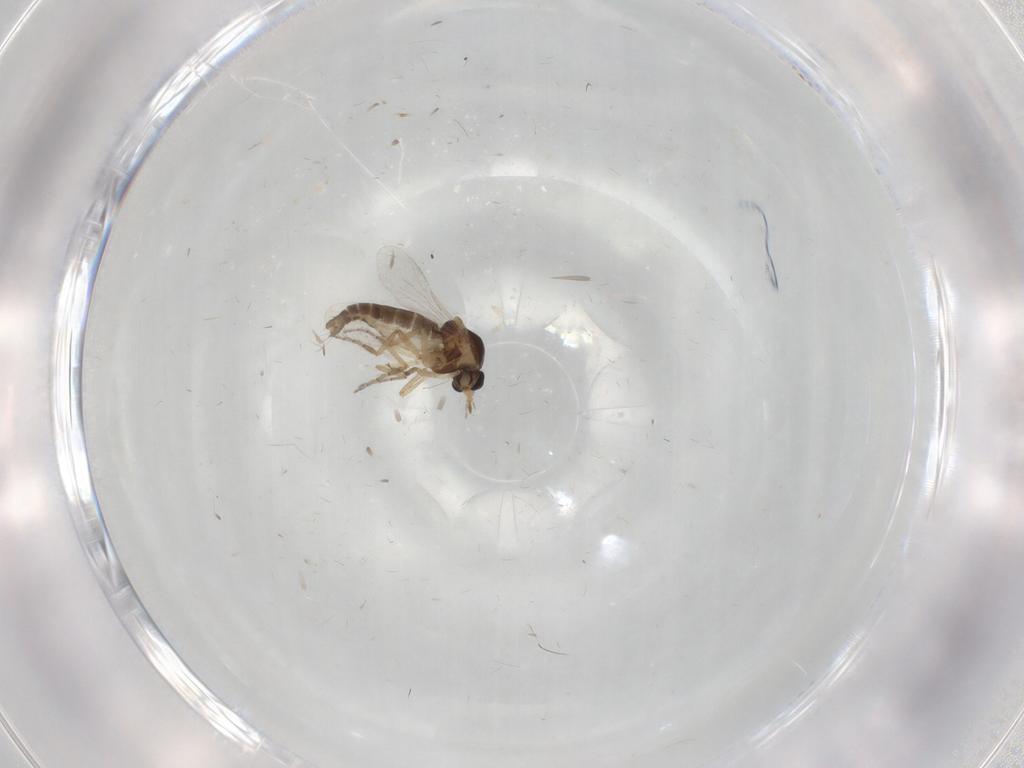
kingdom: Animalia
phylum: Arthropoda
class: Insecta
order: Diptera
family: Ceratopogonidae
